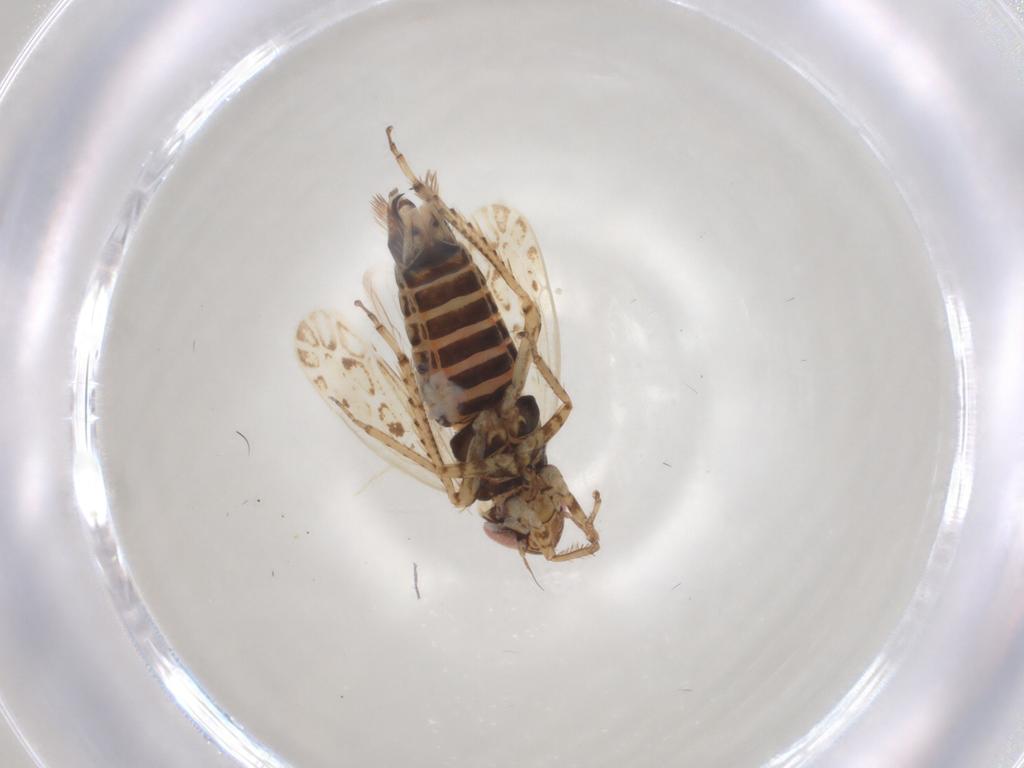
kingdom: Animalia
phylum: Arthropoda
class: Insecta
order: Hemiptera
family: Cicadellidae
